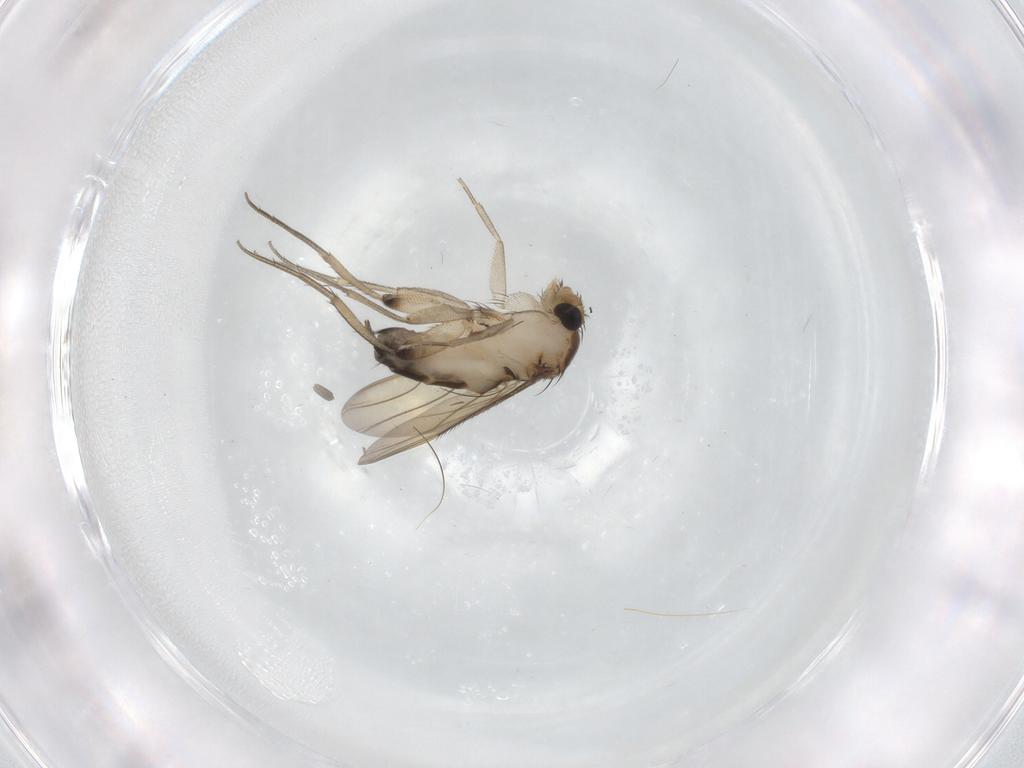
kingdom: Animalia
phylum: Arthropoda
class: Insecta
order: Diptera
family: Phoridae
